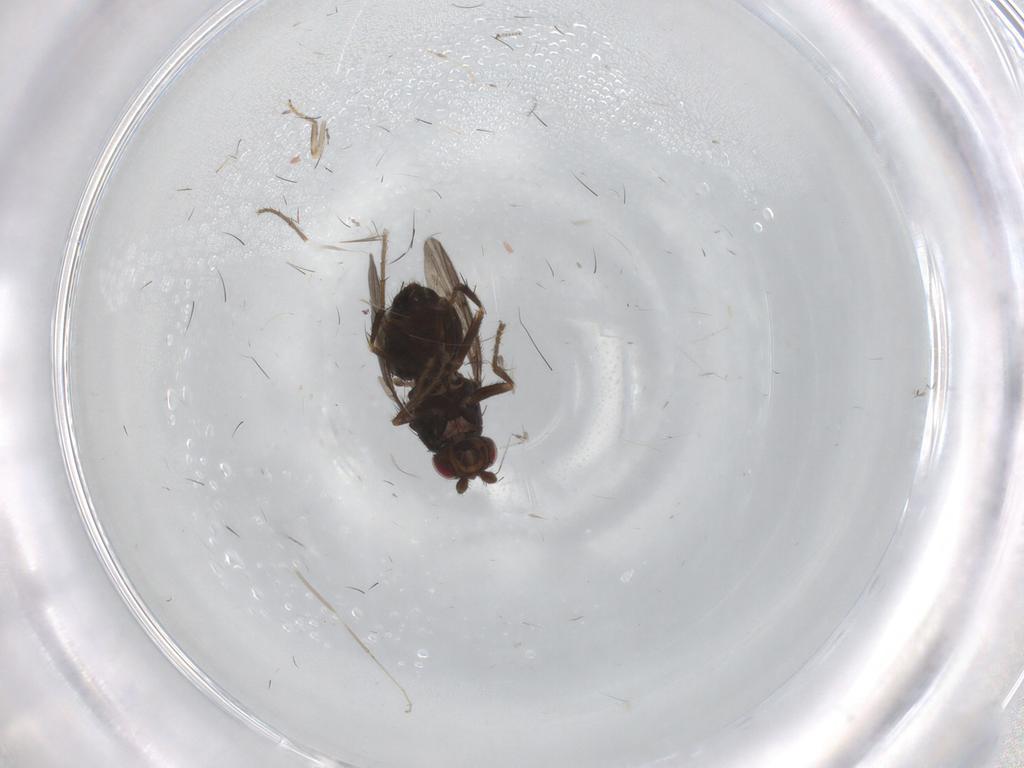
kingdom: Animalia
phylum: Arthropoda
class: Insecta
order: Diptera
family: Sphaeroceridae
